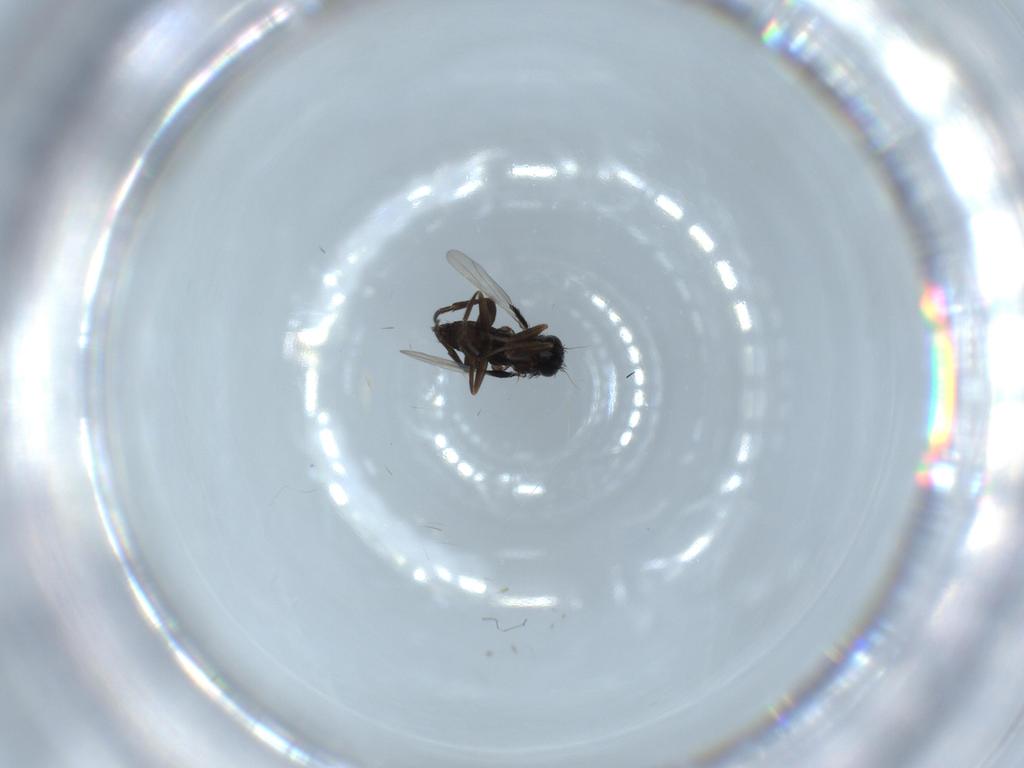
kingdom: Animalia
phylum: Arthropoda
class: Insecta
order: Diptera
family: Phoridae
